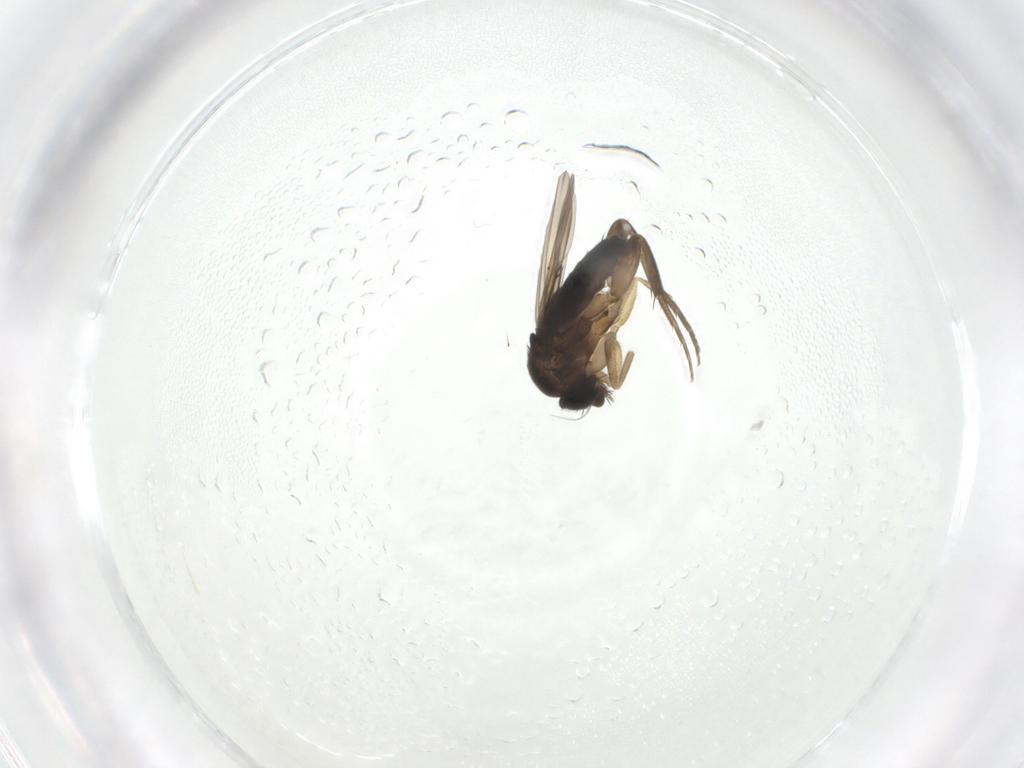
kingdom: Animalia
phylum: Arthropoda
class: Insecta
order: Diptera
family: Phoridae
